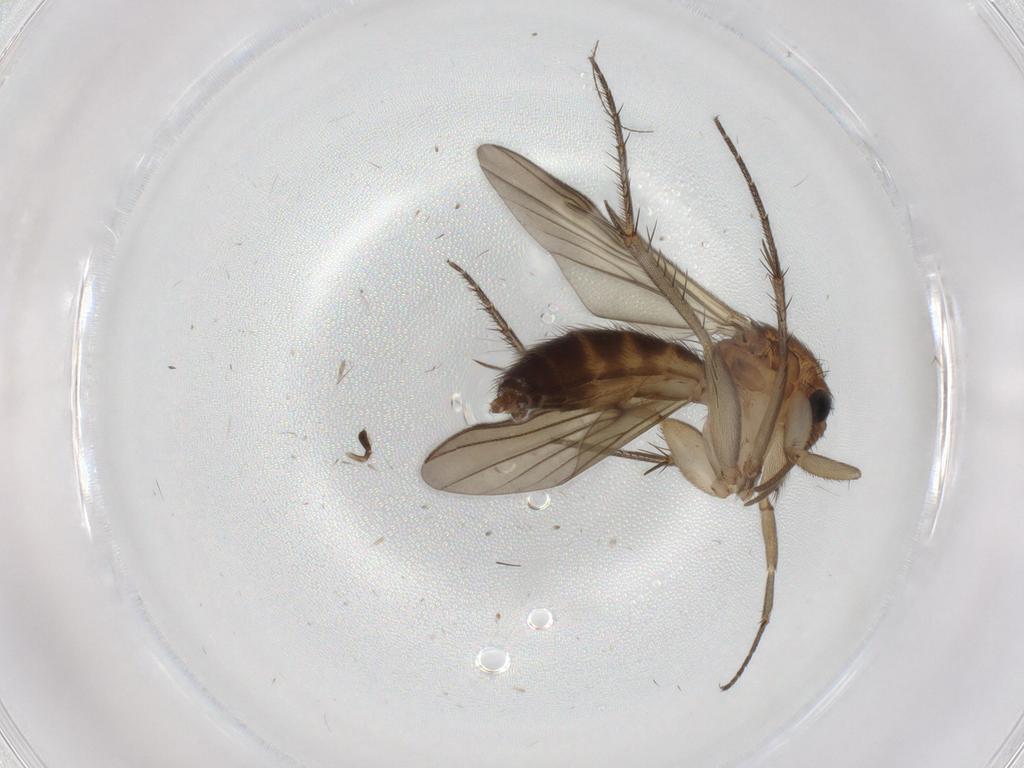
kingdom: Animalia
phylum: Arthropoda
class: Insecta
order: Diptera
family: Mycetophilidae
